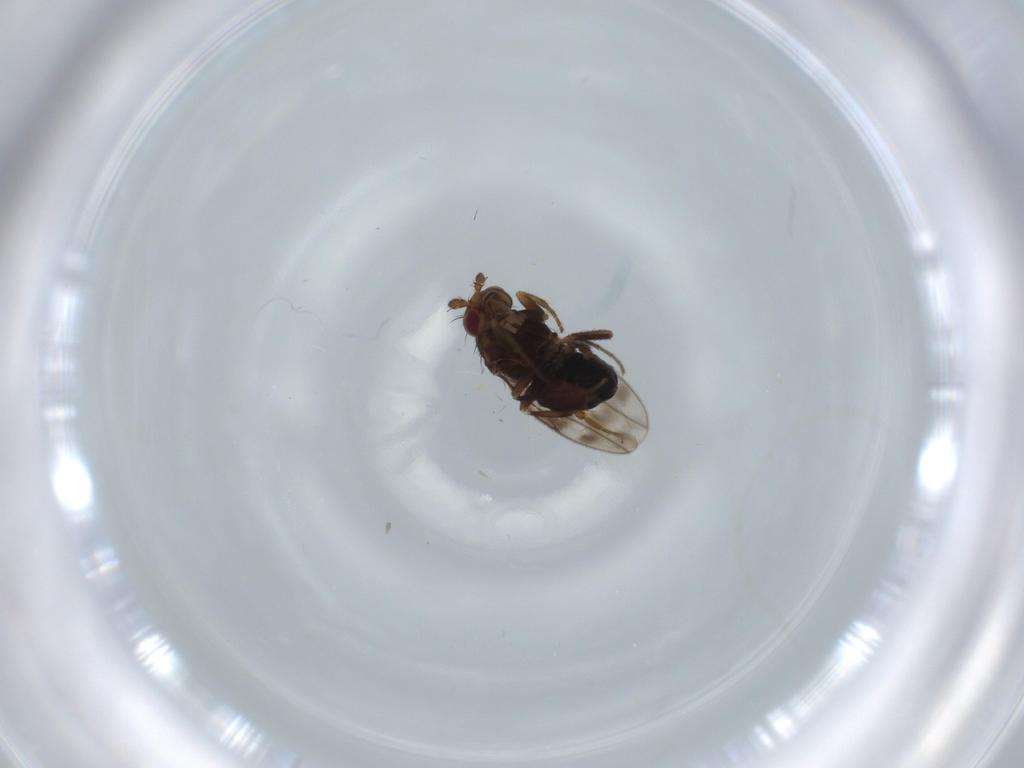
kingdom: Animalia
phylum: Arthropoda
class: Insecta
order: Diptera
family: Sphaeroceridae
